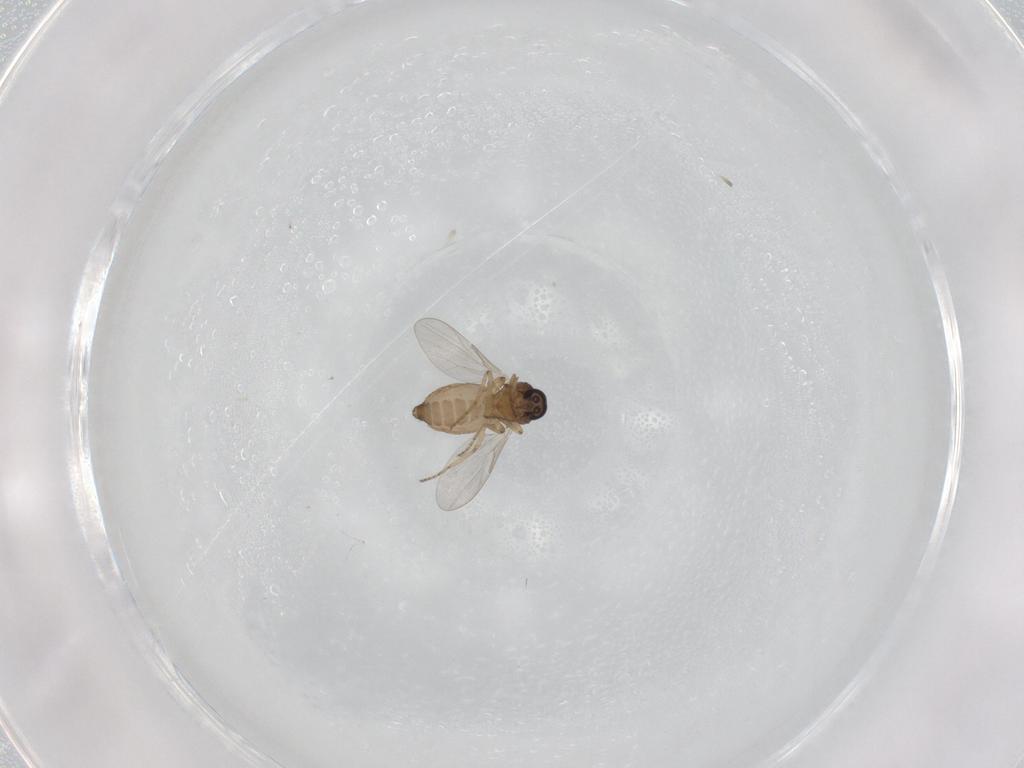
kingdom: Animalia
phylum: Arthropoda
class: Insecta
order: Diptera
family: Ceratopogonidae
